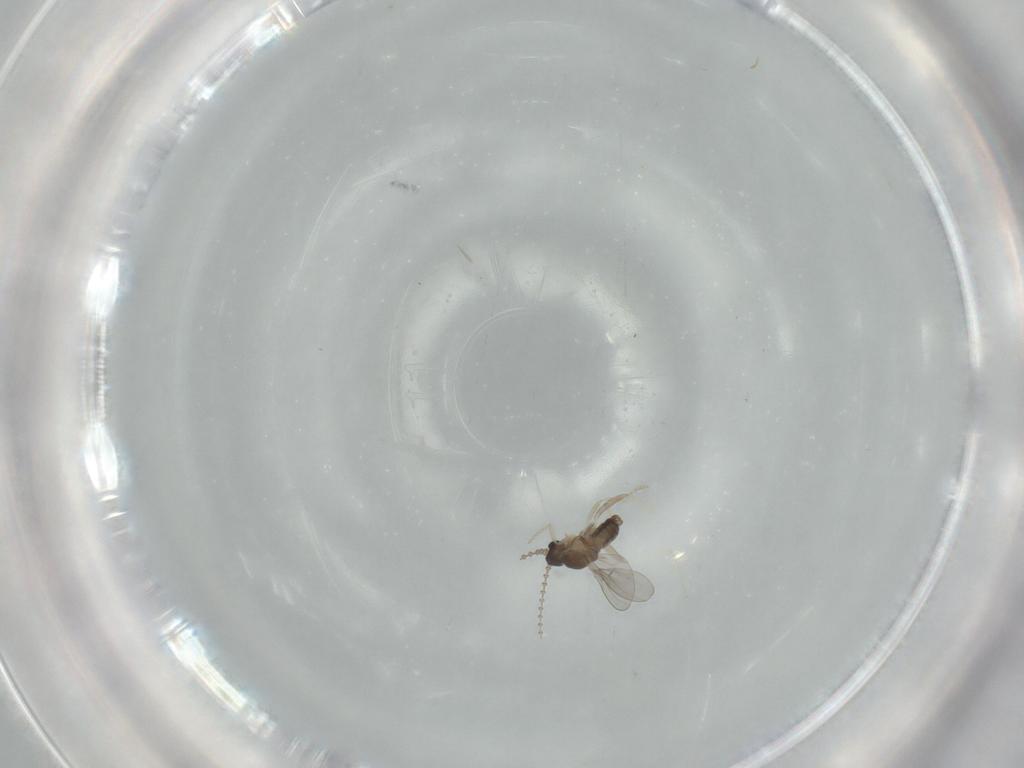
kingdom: Animalia
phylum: Arthropoda
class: Insecta
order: Diptera
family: Cecidomyiidae
